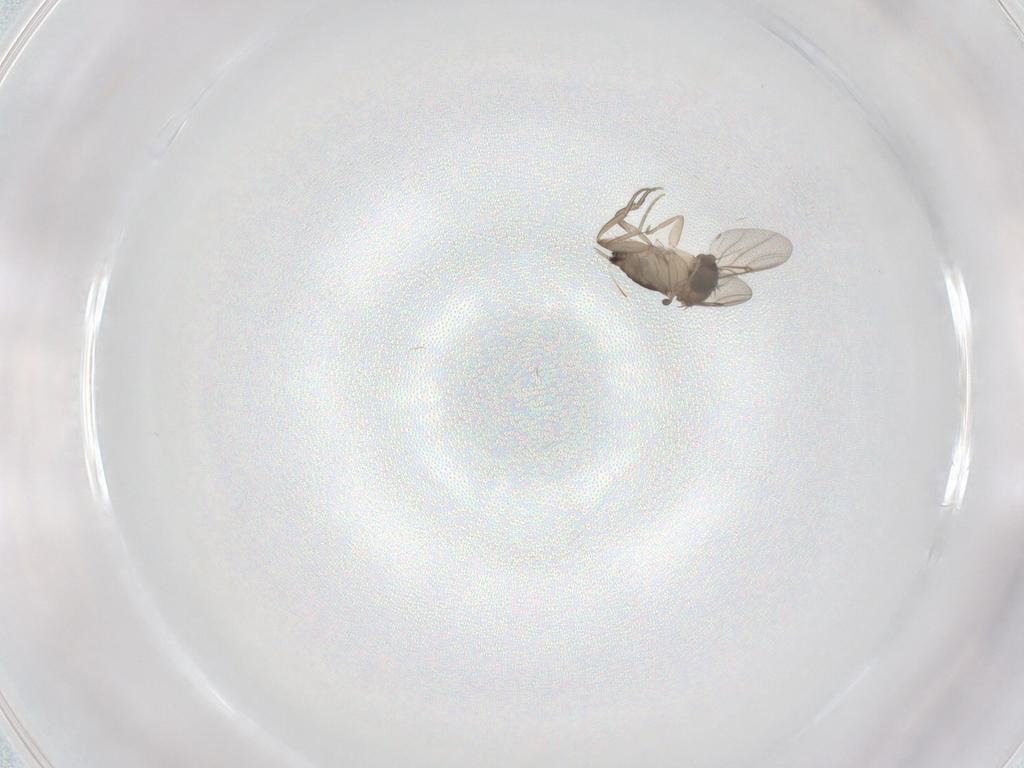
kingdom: Animalia
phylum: Arthropoda
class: Insecta
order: Diptera
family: Phoridae
